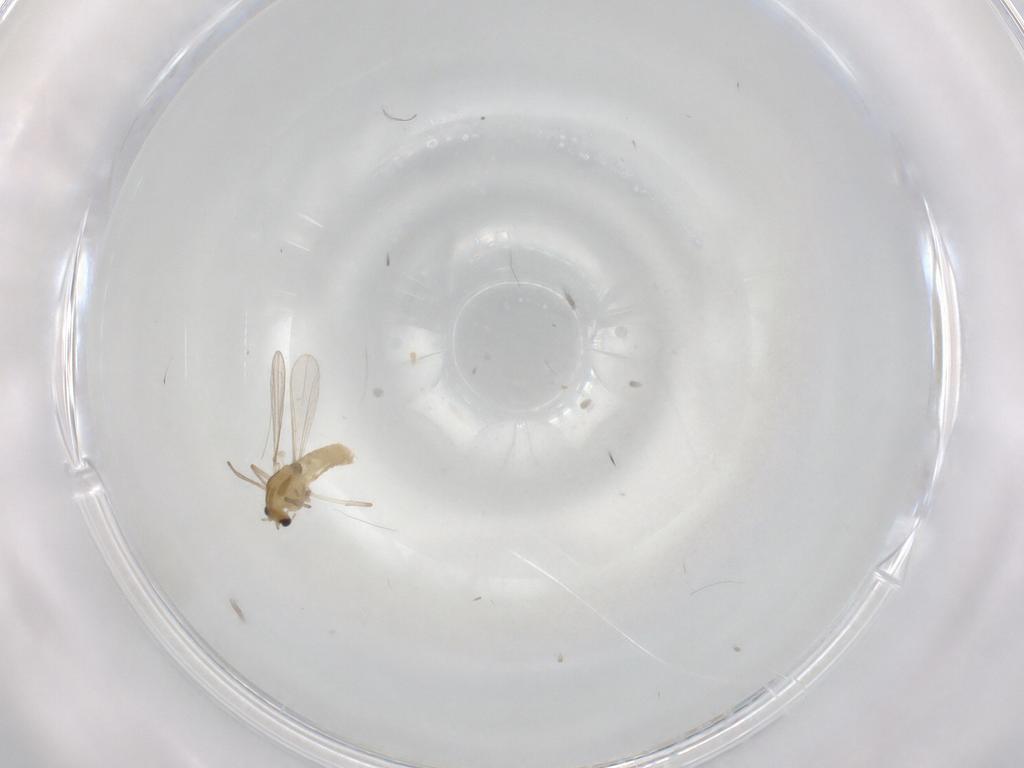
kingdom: Animalia
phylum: Arthropoda
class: Insecta
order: Diptera
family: Chironomidae
